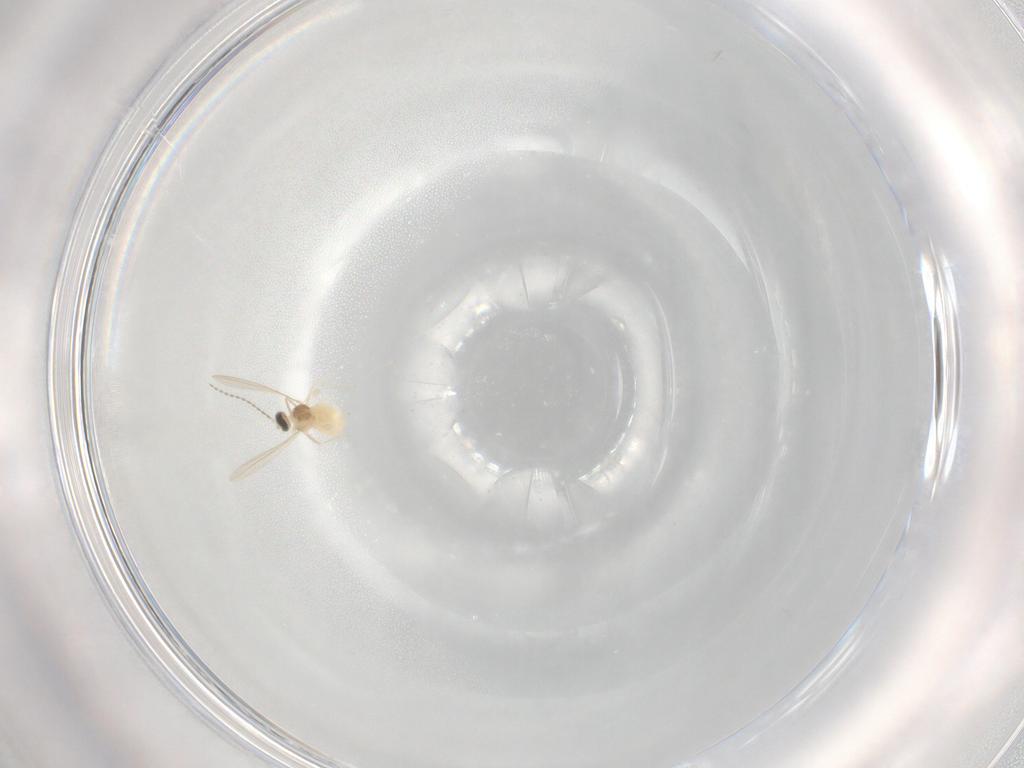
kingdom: Animalia
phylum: Arthropoda
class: Insecta
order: Diptera
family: Cecidomyiidae
